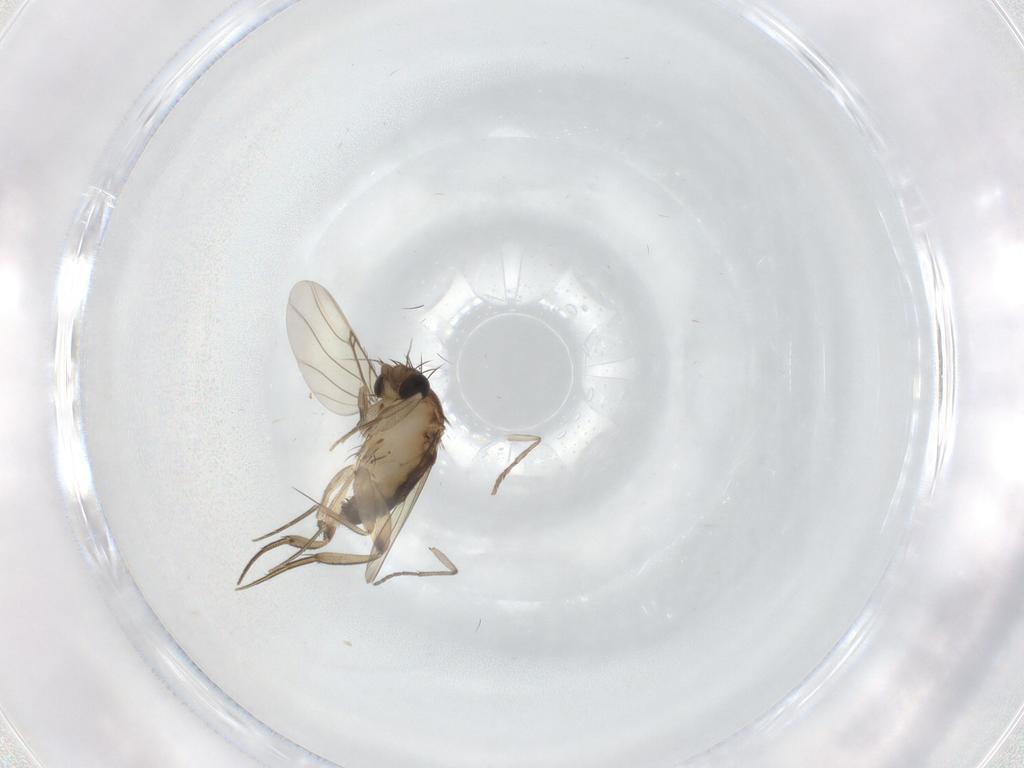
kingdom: Animalia
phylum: Arthropoda
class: Insecta
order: Diptera
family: Phoridae
